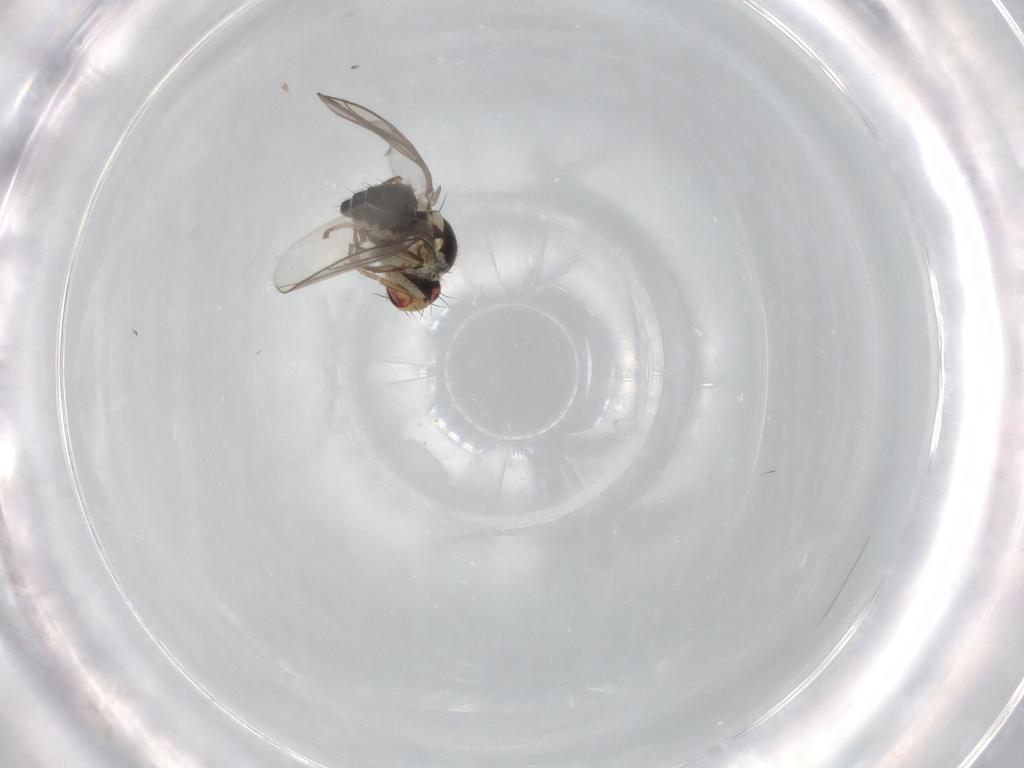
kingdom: Animalia
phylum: Arthropoda
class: Insecta
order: Diptera
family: Agromyzidae
